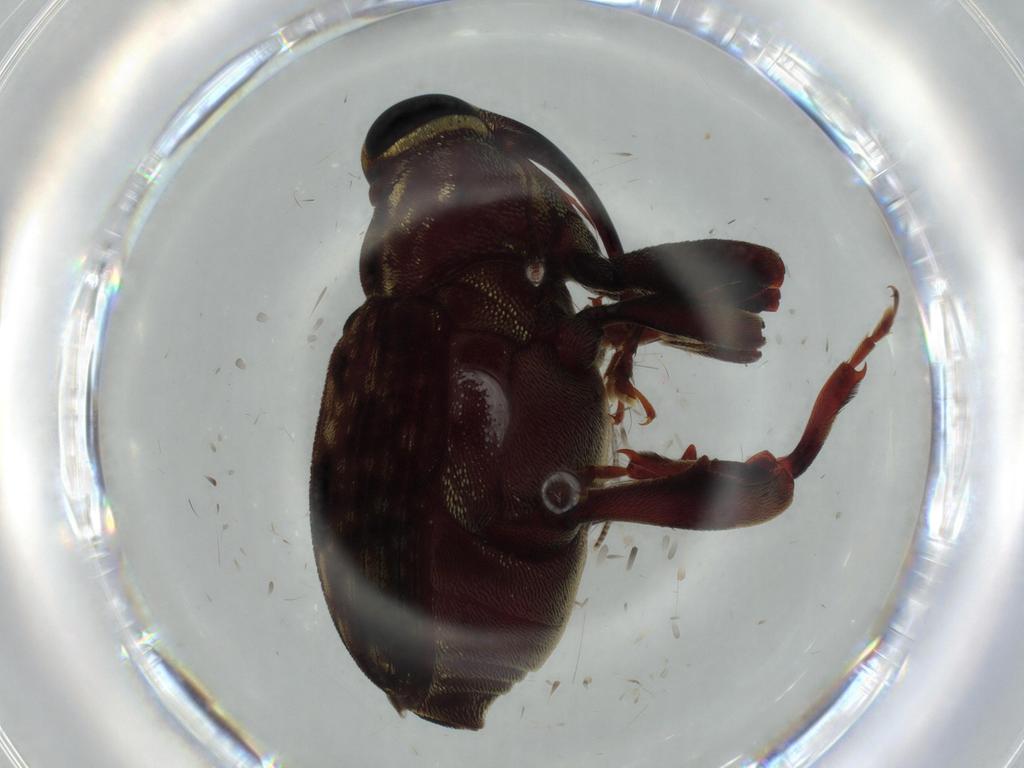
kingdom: Animalia
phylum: Arthropoda
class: Insecta
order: Coleoptera
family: Curculionidae
